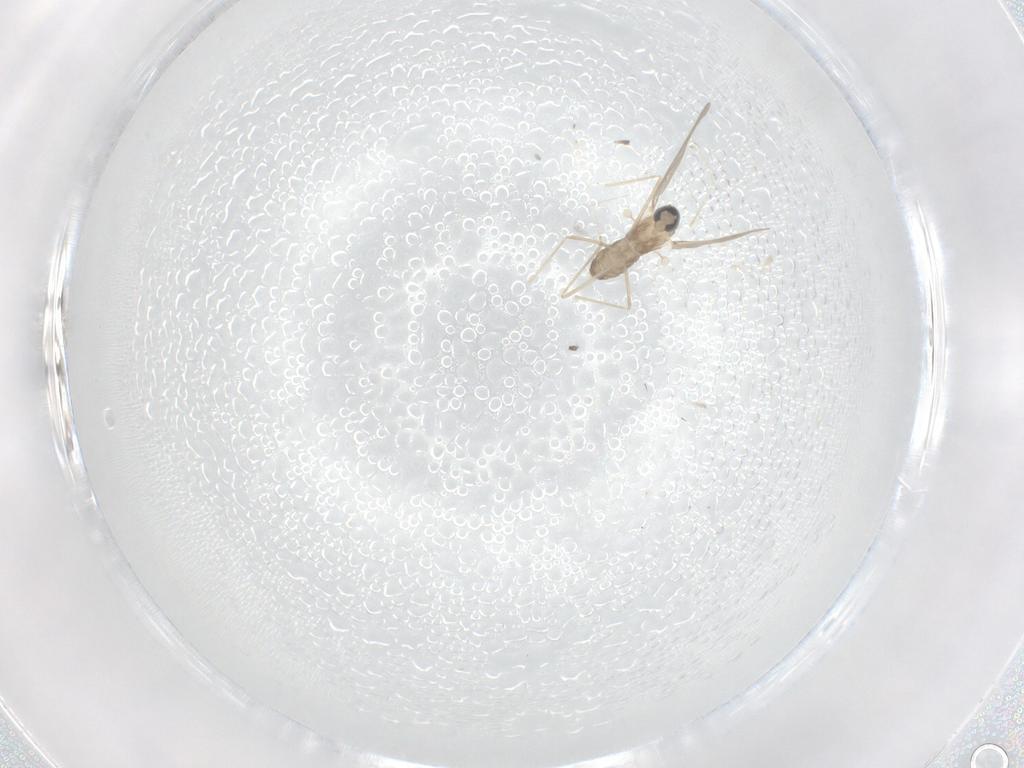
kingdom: Animalia
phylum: Arthropoda
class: Insecta
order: Diptera
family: Cecidomyiidae
